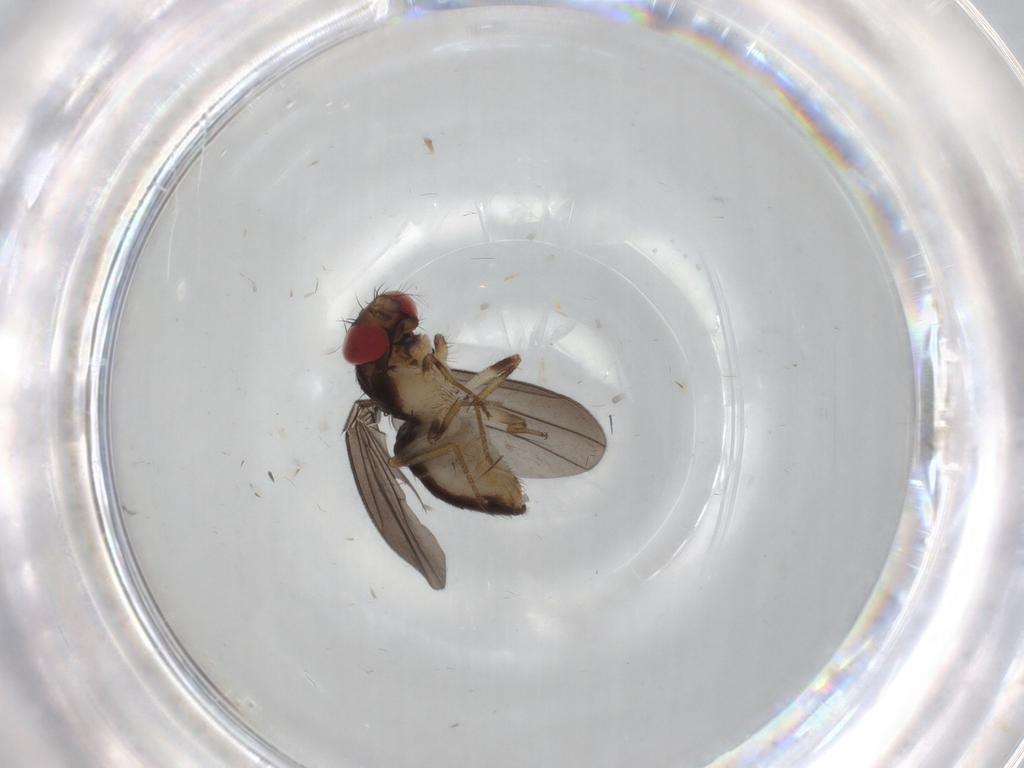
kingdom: Animalia
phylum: Arthropoda
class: Insecta
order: Diptera
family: Drosophilidae
